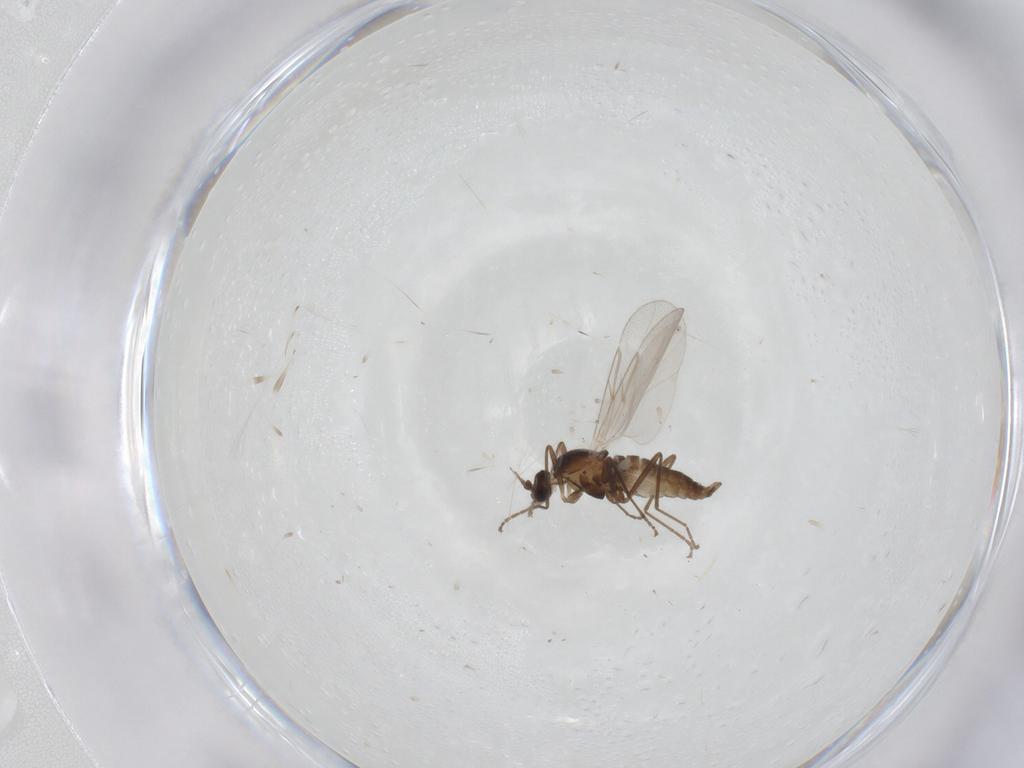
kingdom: Animalia
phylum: Arthropoda
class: Insecta
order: Diptera
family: Cecidomyiidae
